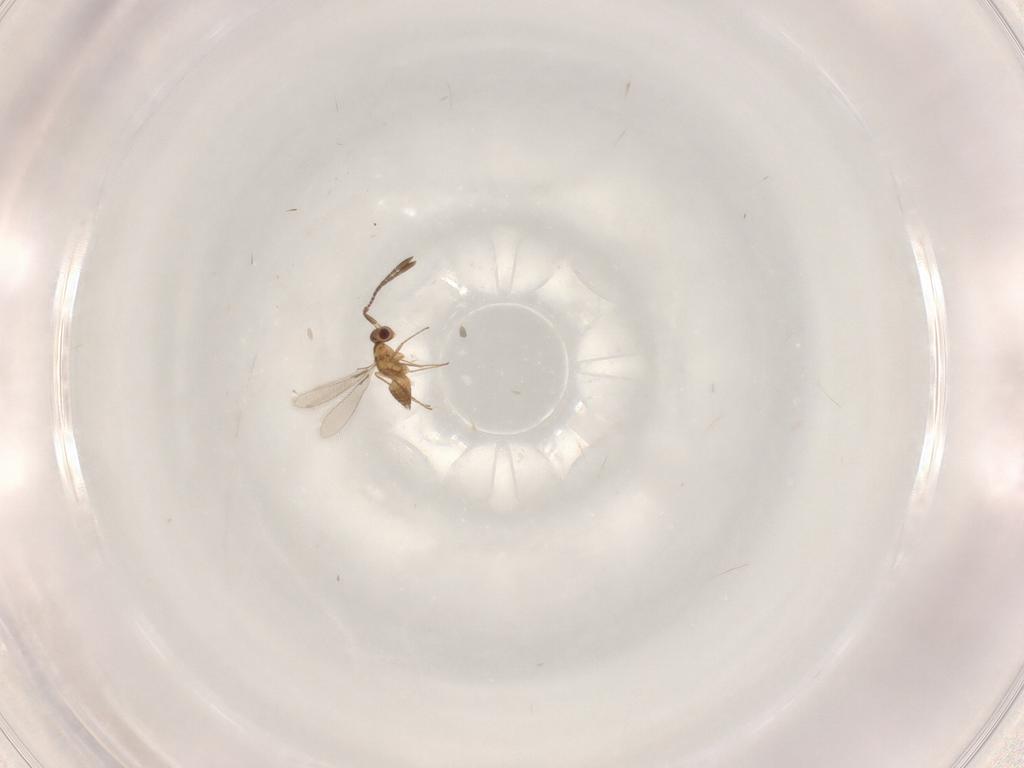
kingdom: Animalia
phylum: Arthropoda
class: Insecta
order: Hymenoptera
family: Mymaridae
